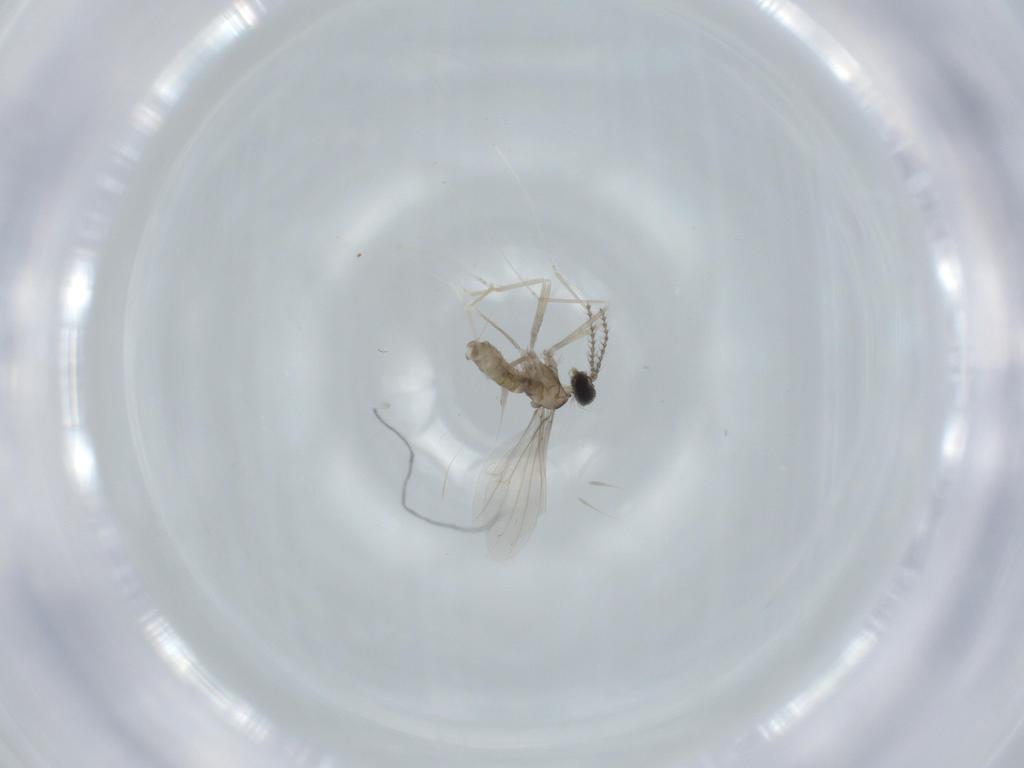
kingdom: Animalia
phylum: Arthropoda
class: Insecta
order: Diptera
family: Cecidomyiidae
